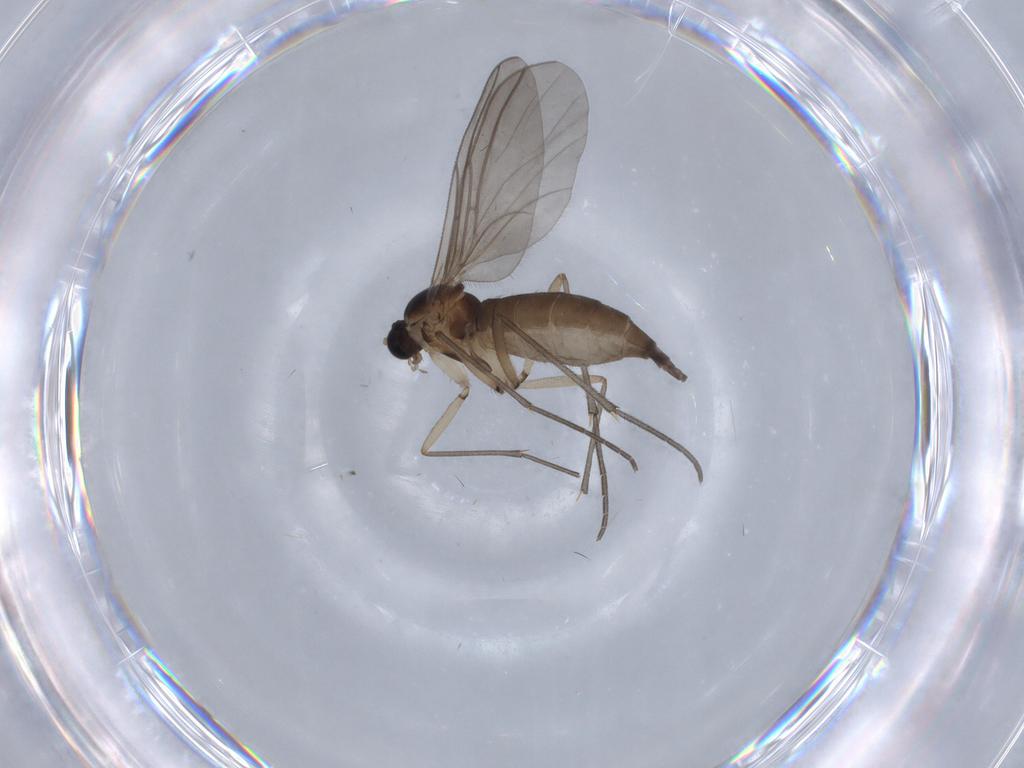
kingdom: Animalia
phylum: Arthropoda
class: Insecta
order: Diptera
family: Sciaridae
